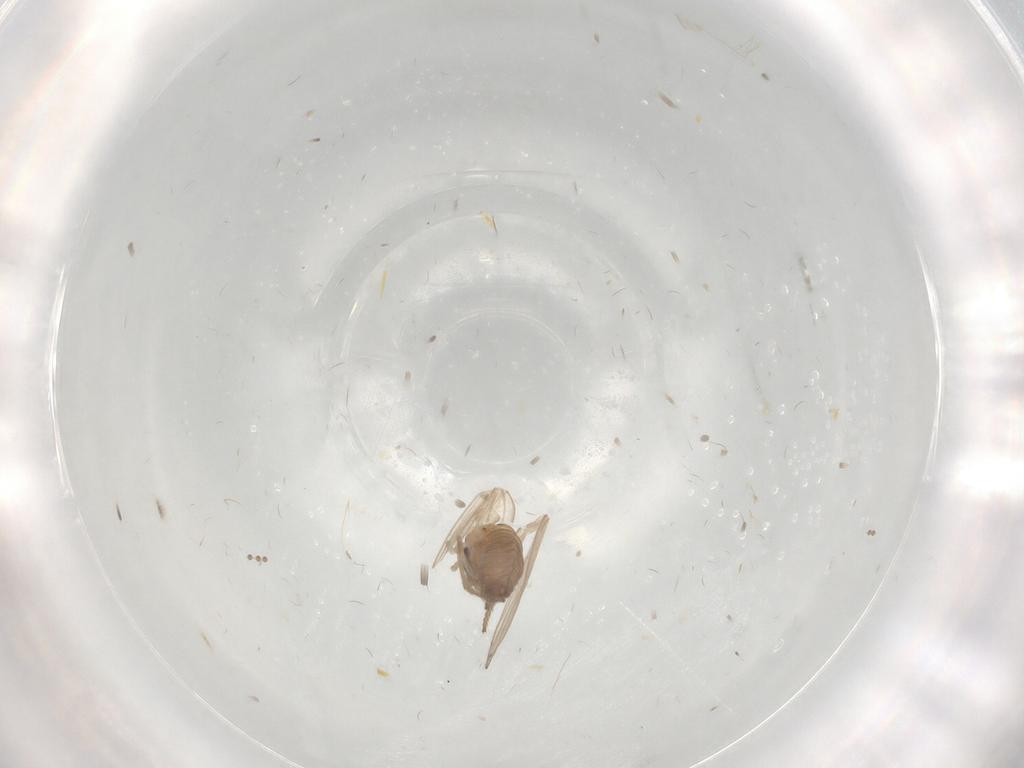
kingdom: Animalia
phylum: Arthropoda
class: Insecta
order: Diptera
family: Psychodidae
